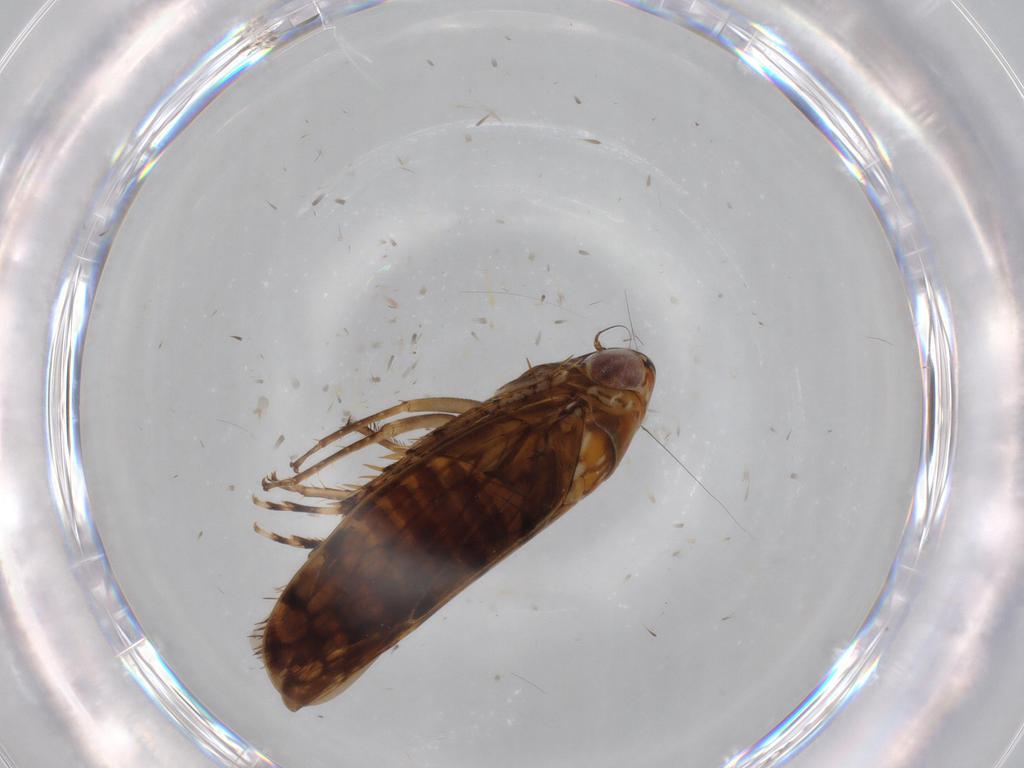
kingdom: Animalia
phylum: Arthropoda
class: Insecta
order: Hemiptera
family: Cicadellidae
